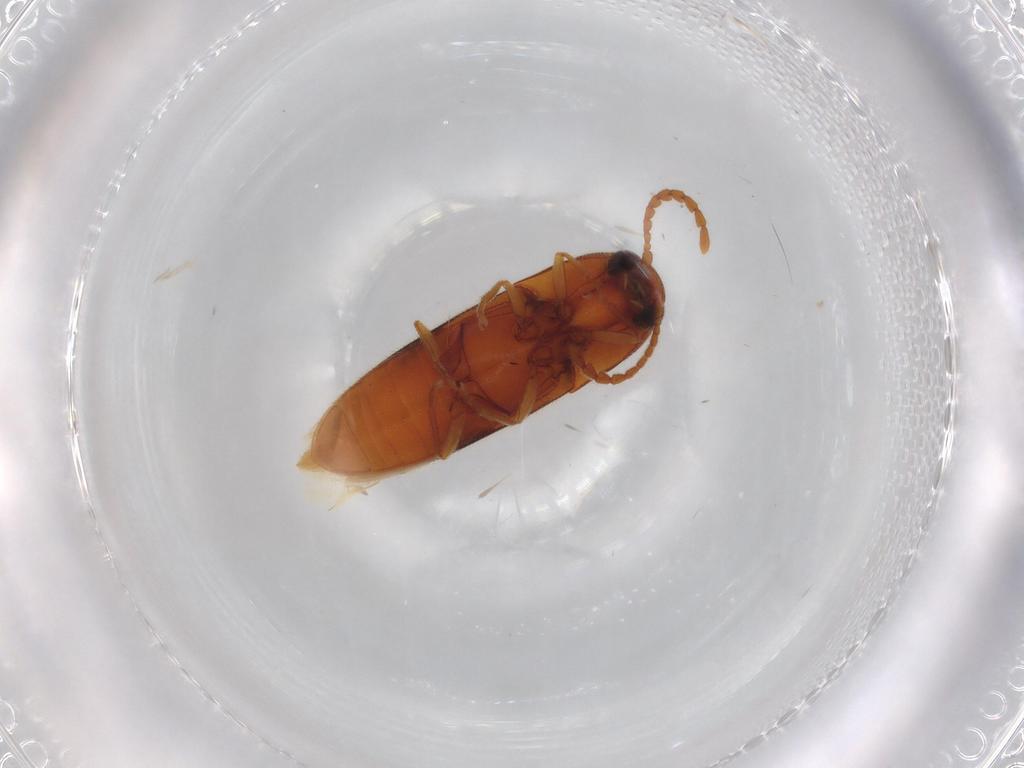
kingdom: Animalia
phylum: Arthropoda
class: Insecta
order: Coleoptera
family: Elateridae
